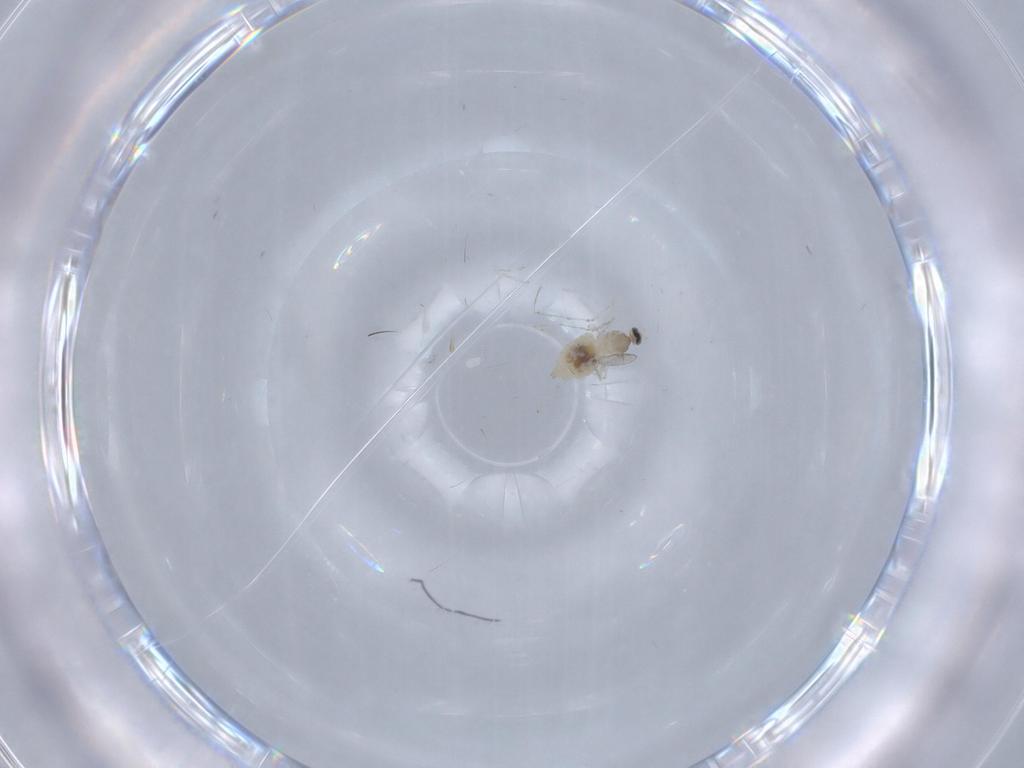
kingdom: Animalia
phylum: Arthropoda
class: Insecta
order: Diptera
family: Cecidomyiidae
